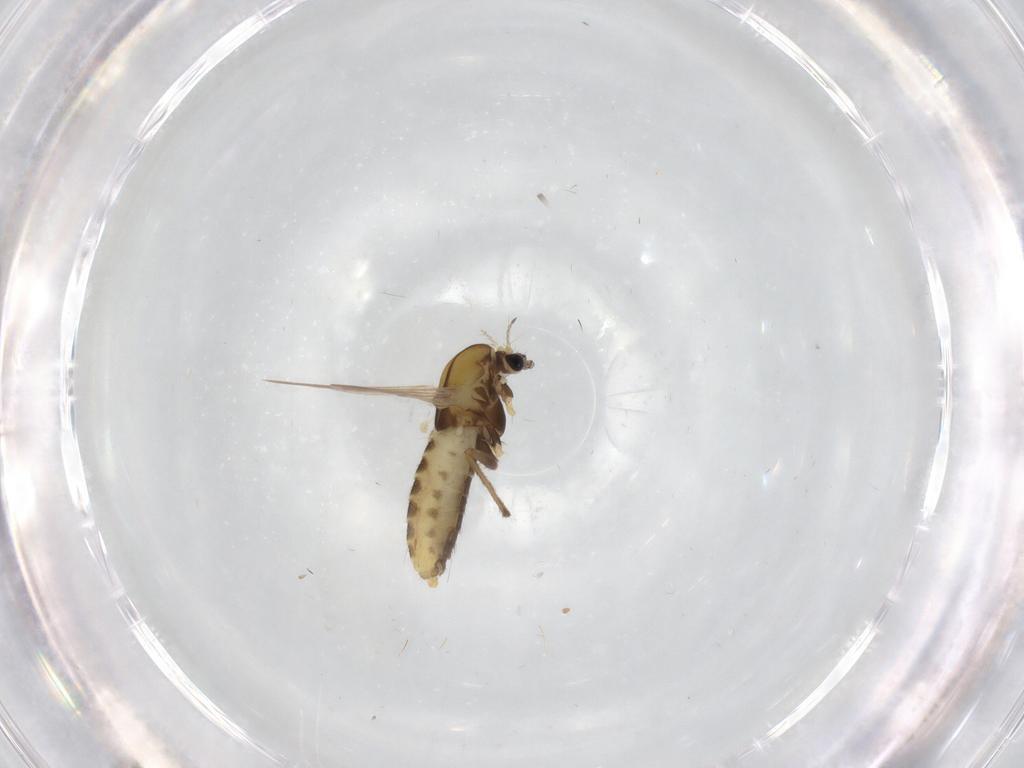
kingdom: Animalia
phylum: Arthropoda
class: Insecta
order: Diptera
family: Chironomidae
